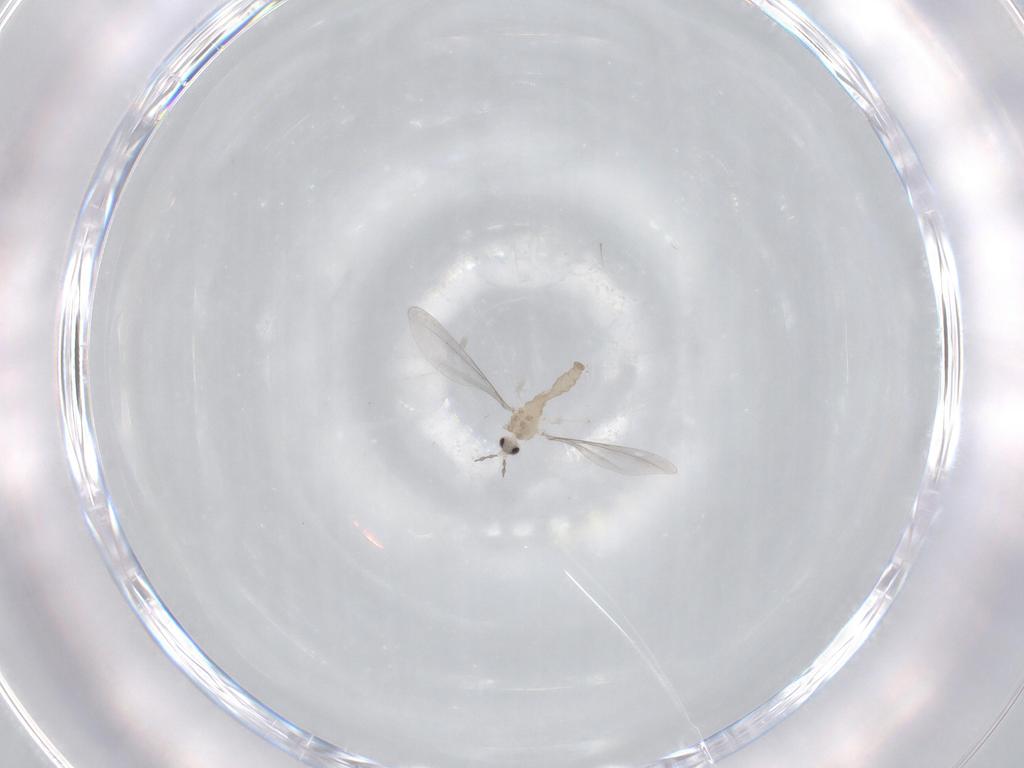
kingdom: Animalia
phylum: Arthropoda
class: Insecta
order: Diptera
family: Cecidomyiidae
